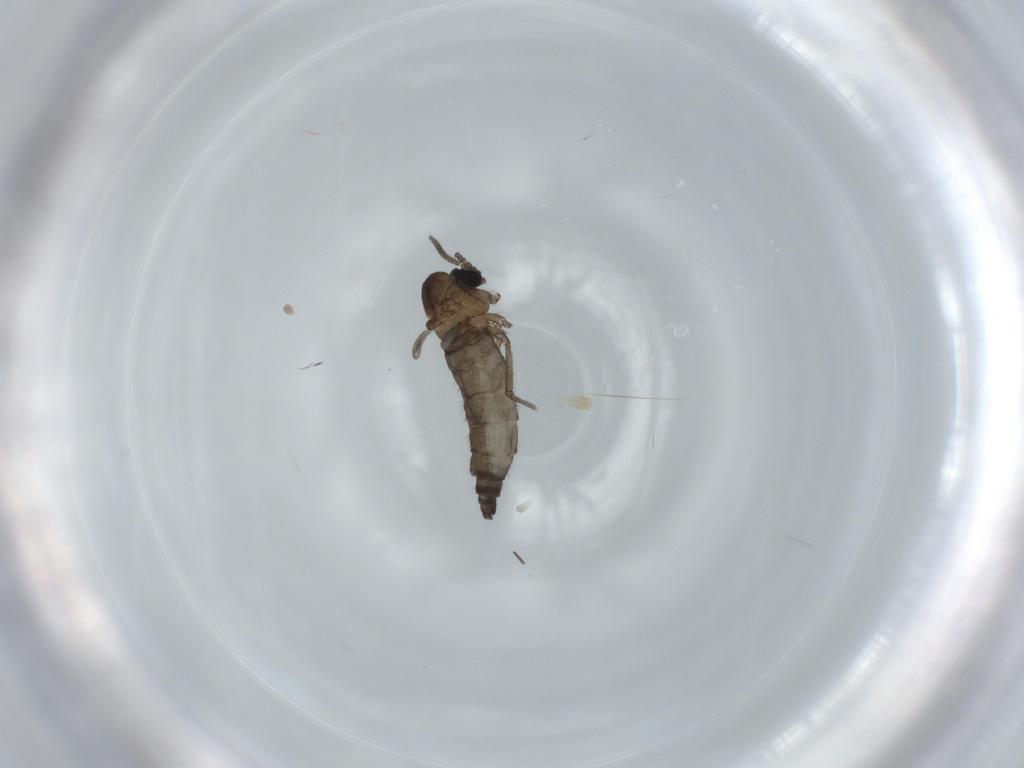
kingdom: Animalia
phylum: Arthropoda
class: Insecta
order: Diptera
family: Sciaridae
